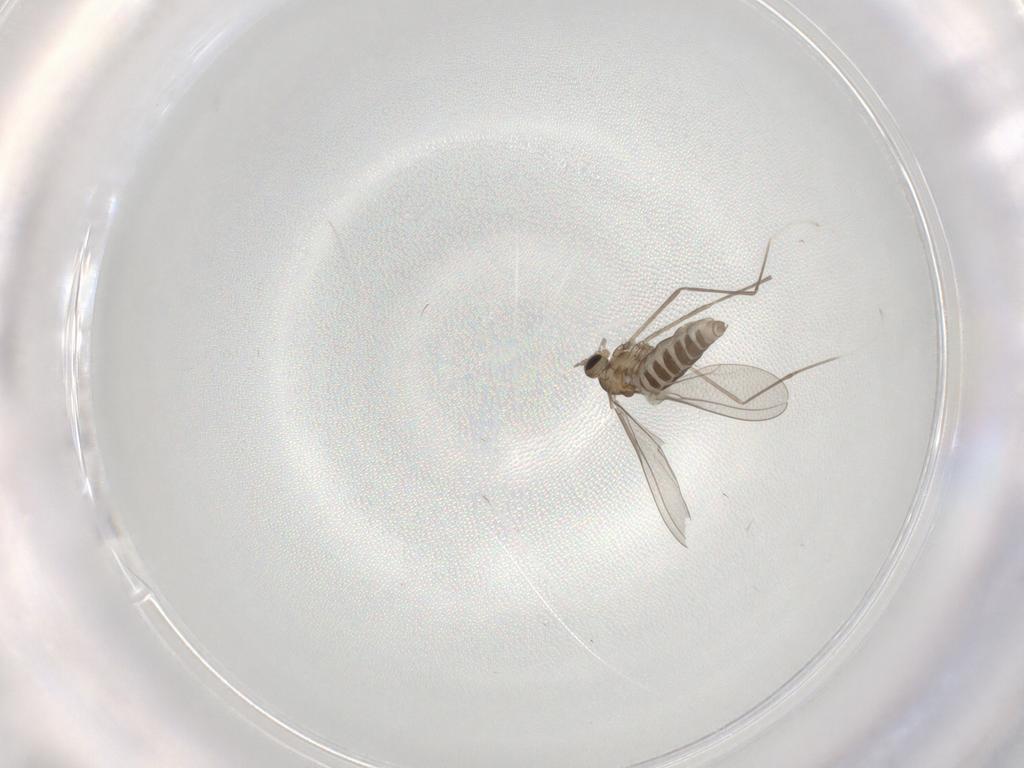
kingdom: Animalia
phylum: Arthropoda
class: Insecta
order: Diptera
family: Cecidomyiidae
